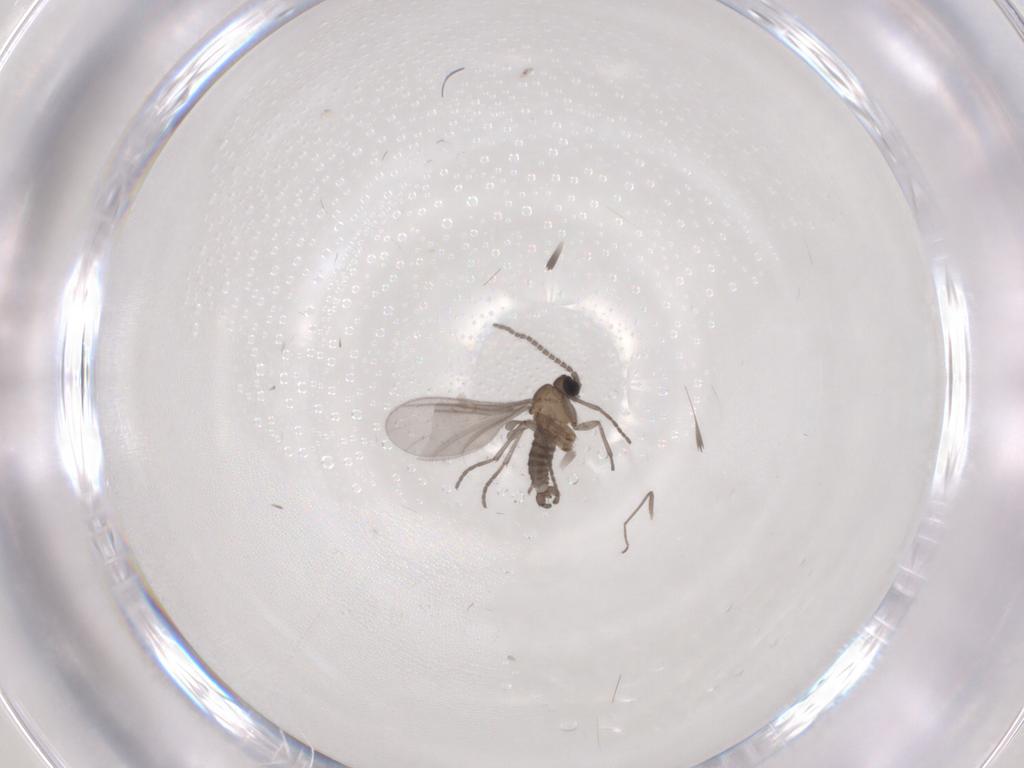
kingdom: Animalia
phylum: Arthropoda
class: Insecta
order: Diptera
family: Chironomidae
